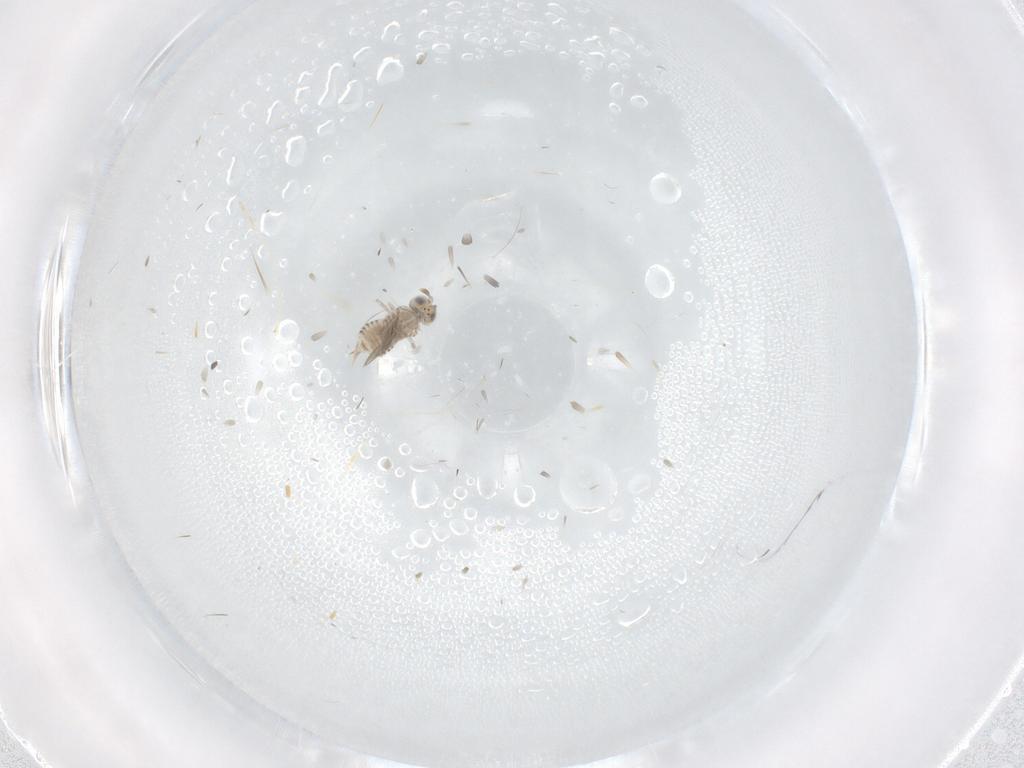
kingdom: Animalia
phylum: Arthropoda
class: Insecta
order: Hymenoptera
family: Aphelinidae
